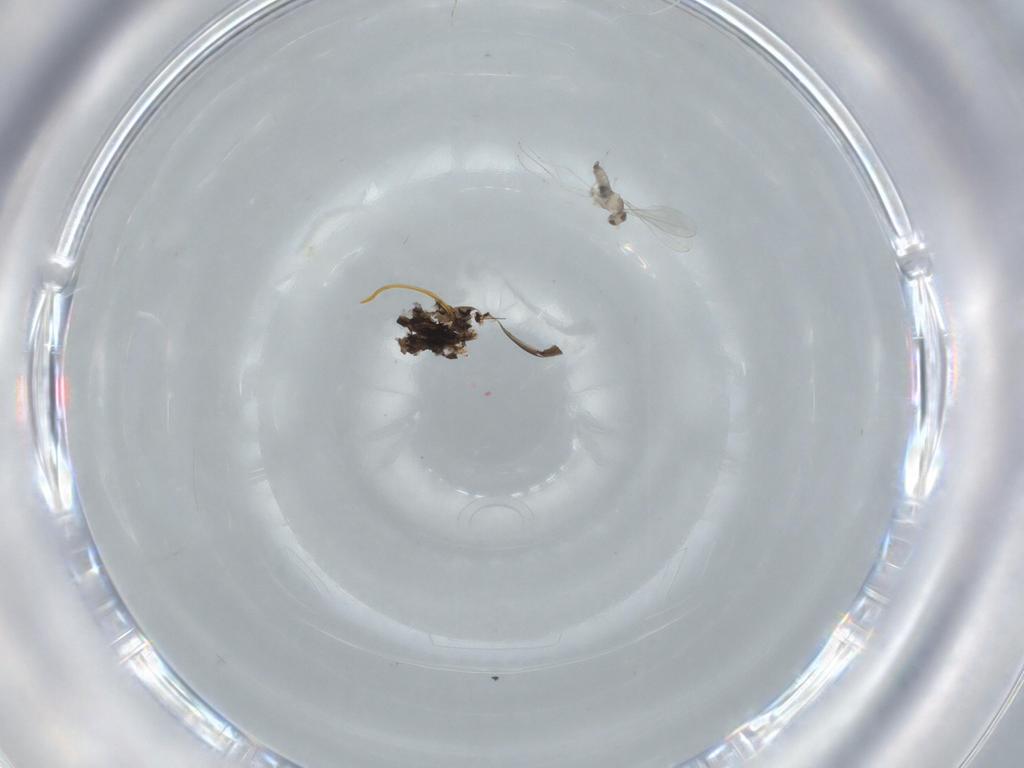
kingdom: Animalia
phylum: Arthropoda
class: Insecta
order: Diptera
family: Cecidomyiidae
